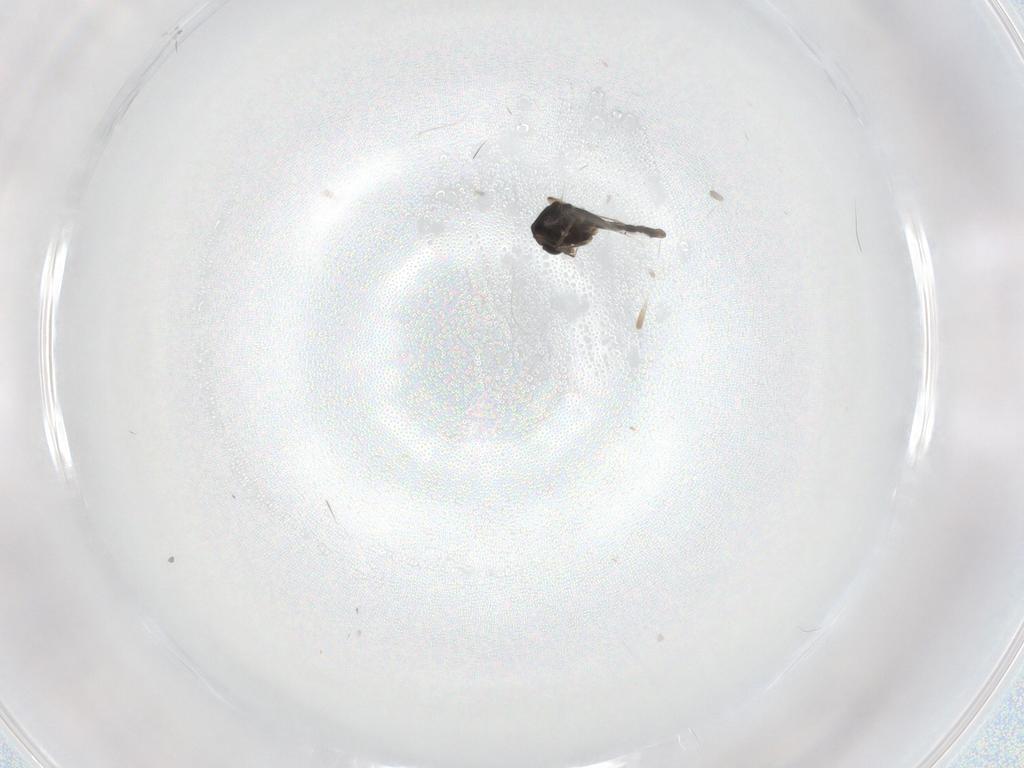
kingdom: Animalia
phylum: Arthropoda
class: Insecta
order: Diptera
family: Chironomidae
